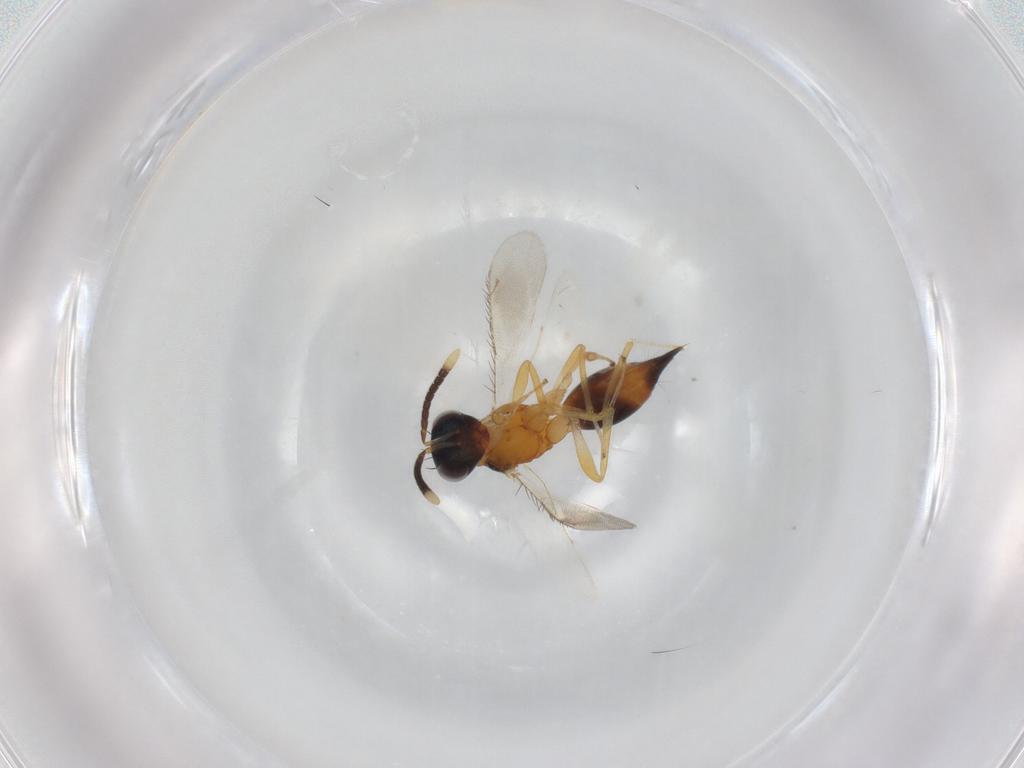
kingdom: Animalia
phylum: Arthropoda
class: Insecta
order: Hymenoptera
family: Diparidae
